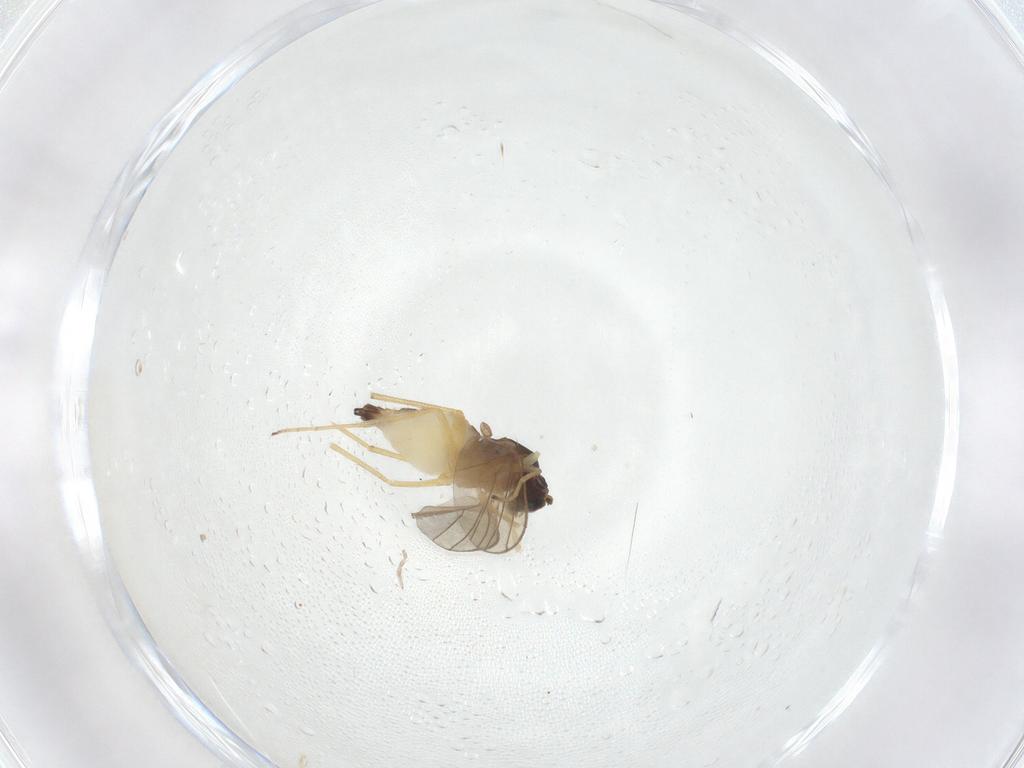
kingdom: Animalia
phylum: Arthropoda
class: Insecta
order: Diptera
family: Dolichopodidae
